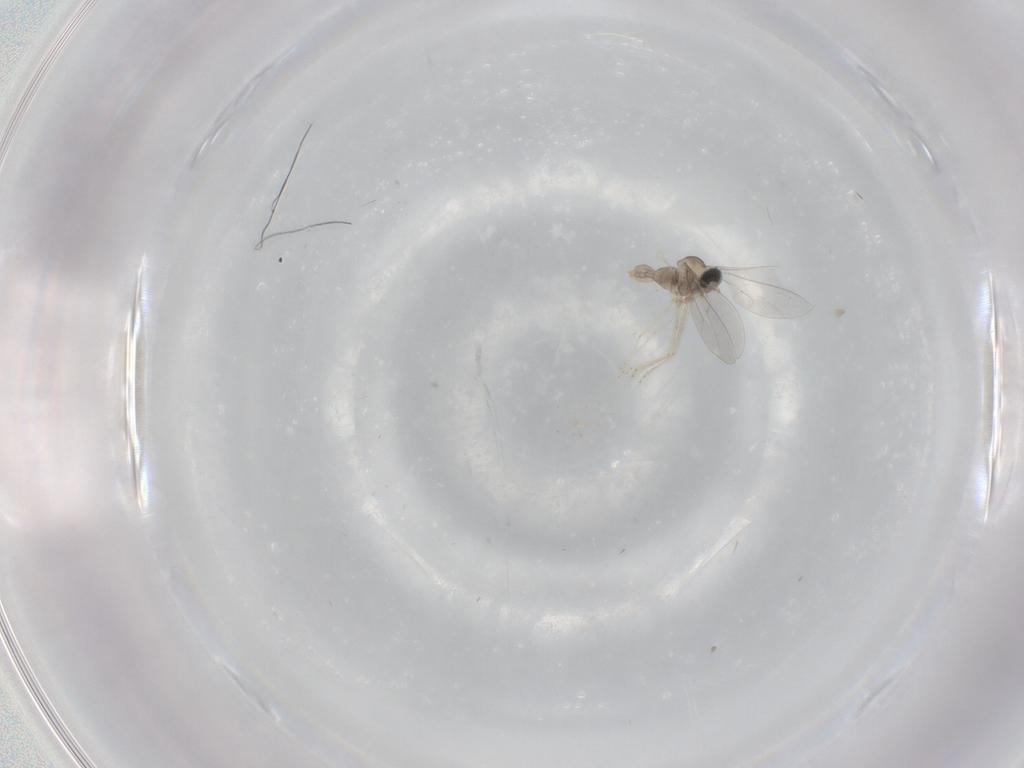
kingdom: Animalia
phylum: Arthropoda
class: Insecta
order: Diptera
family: Cecidomyiidae
